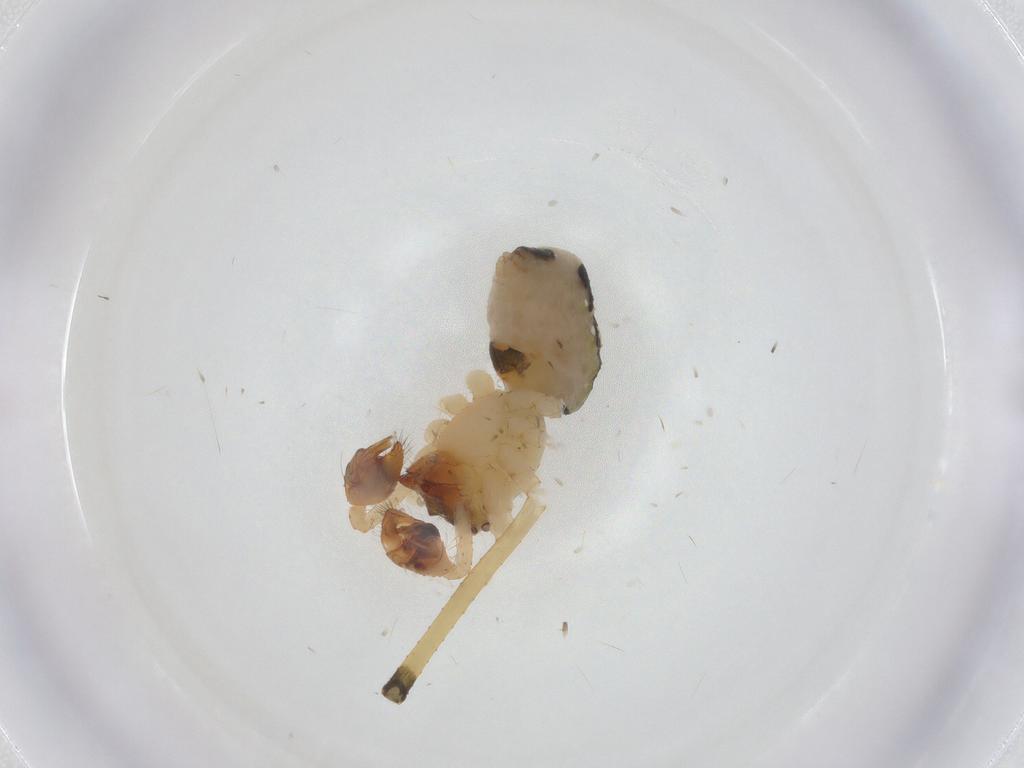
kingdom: Animalia
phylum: Arthropoda
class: Arachnida
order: Araneae
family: Theridiidae
